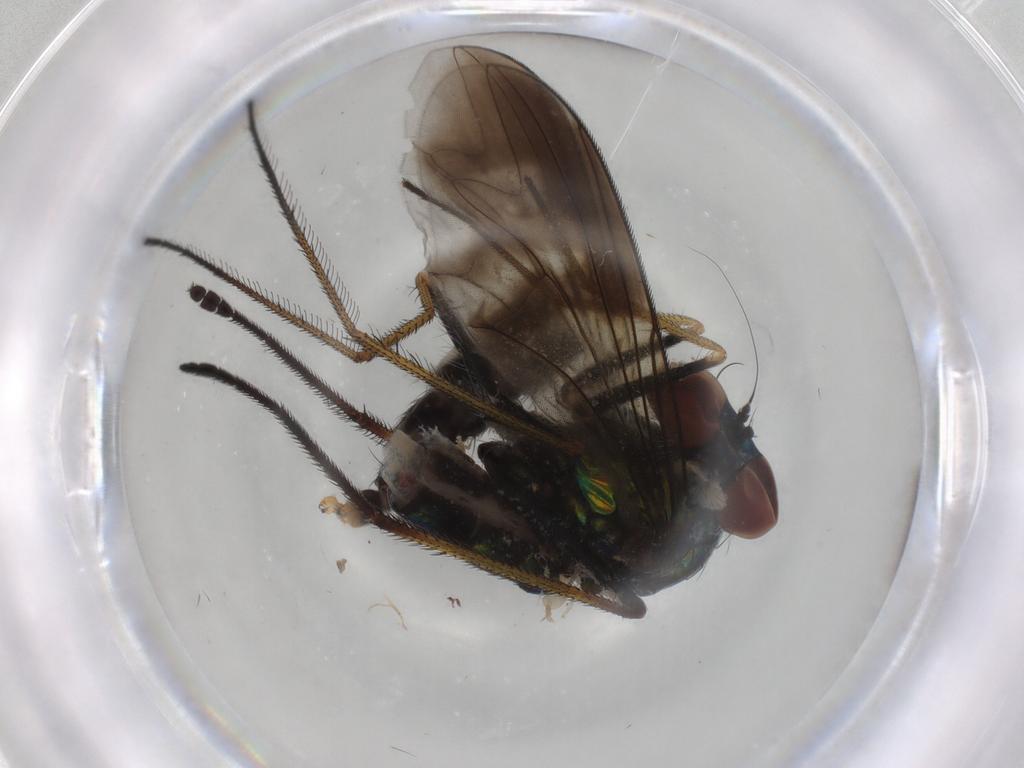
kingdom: Animalia
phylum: Arthropoda
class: Insecta
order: Diptera
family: Dolichopodidae
